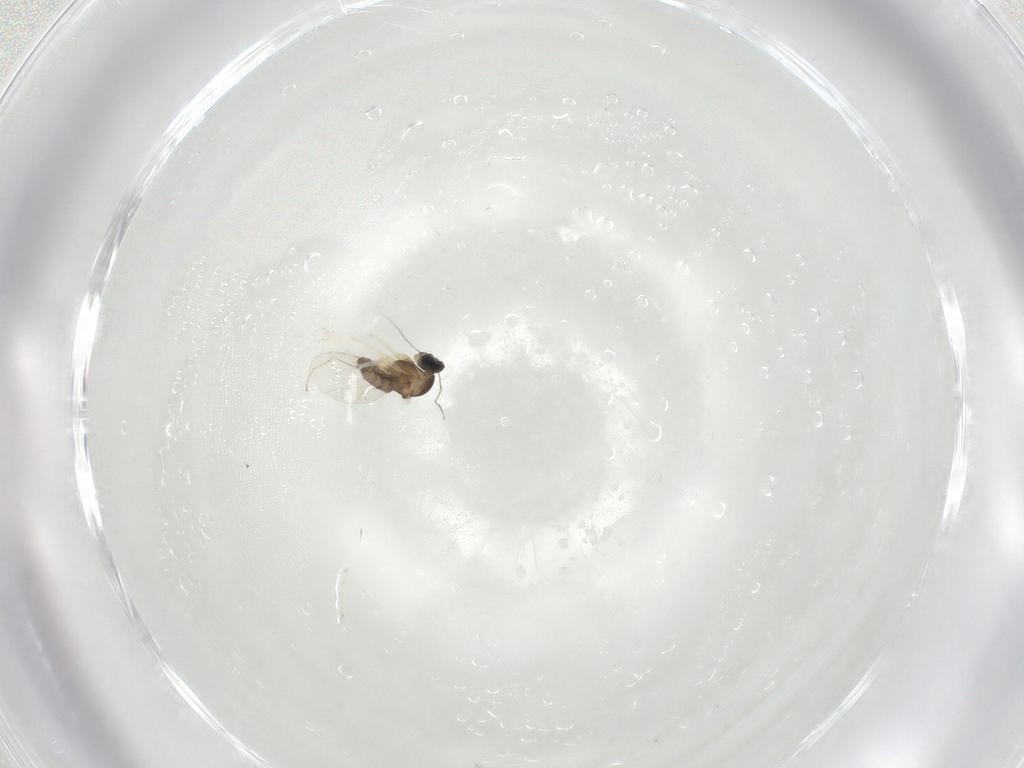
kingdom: Animalia
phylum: Arthropoda
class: Insecta
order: Diptera
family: Cecidomyiidae
